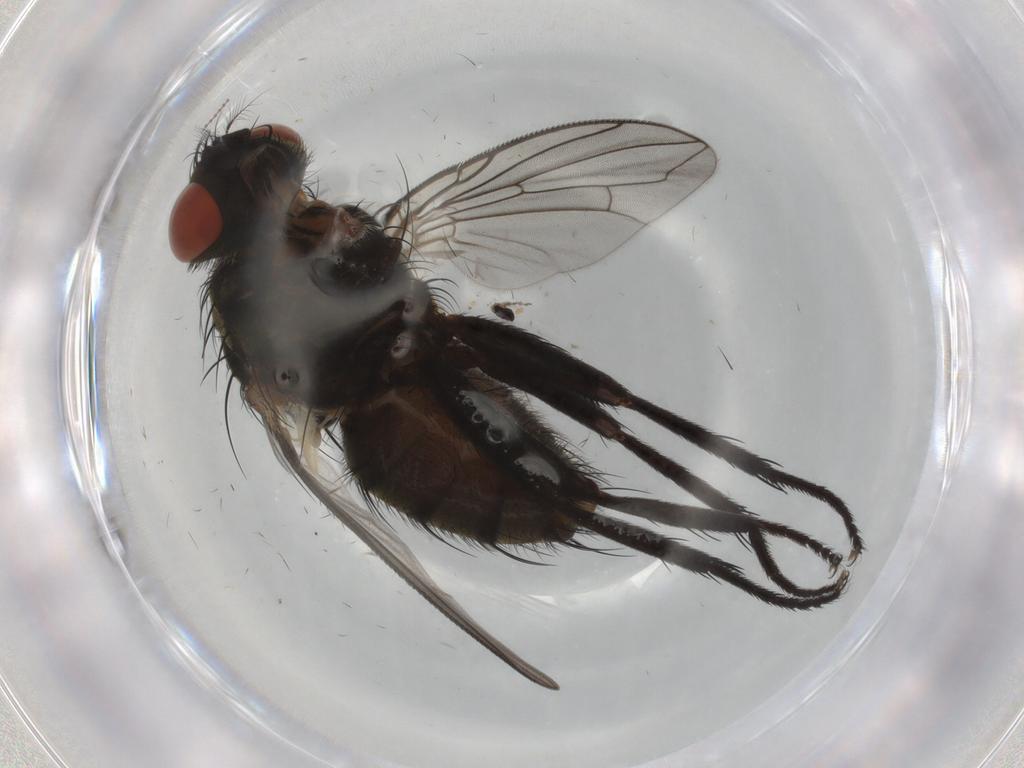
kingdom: Animalia
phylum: Arthropoda
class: Insecta
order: Diptera
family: Sarcophagidae
